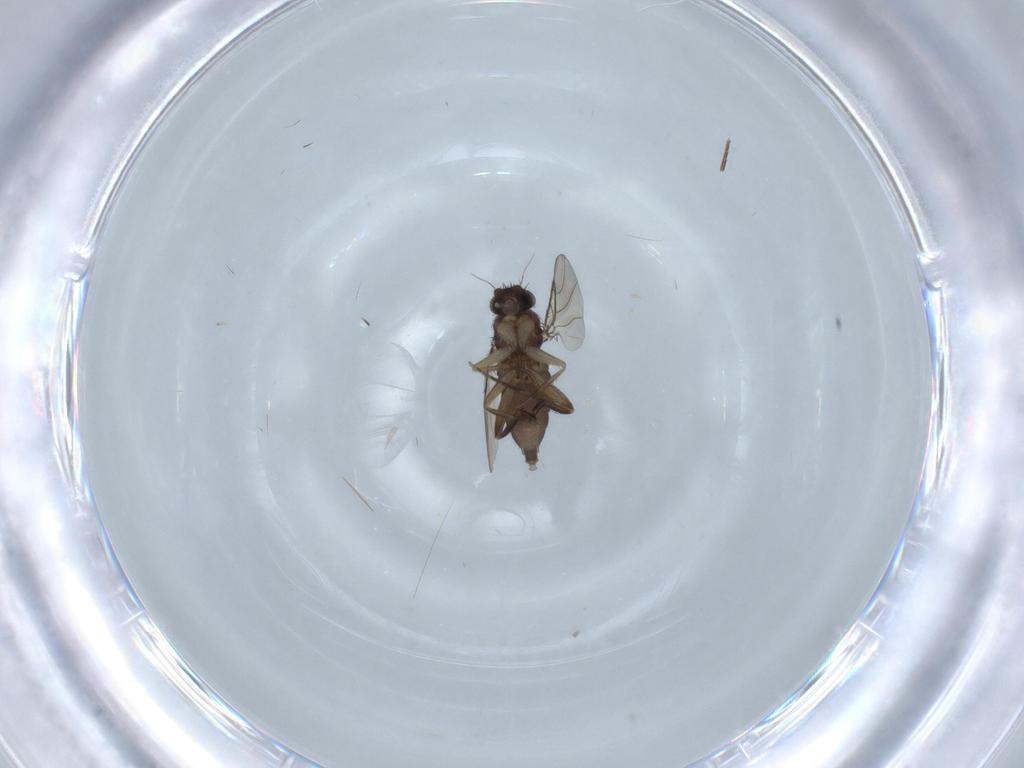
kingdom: Animalia
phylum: Arthropoda
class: Insecta
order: Diptera
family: Phoridae
